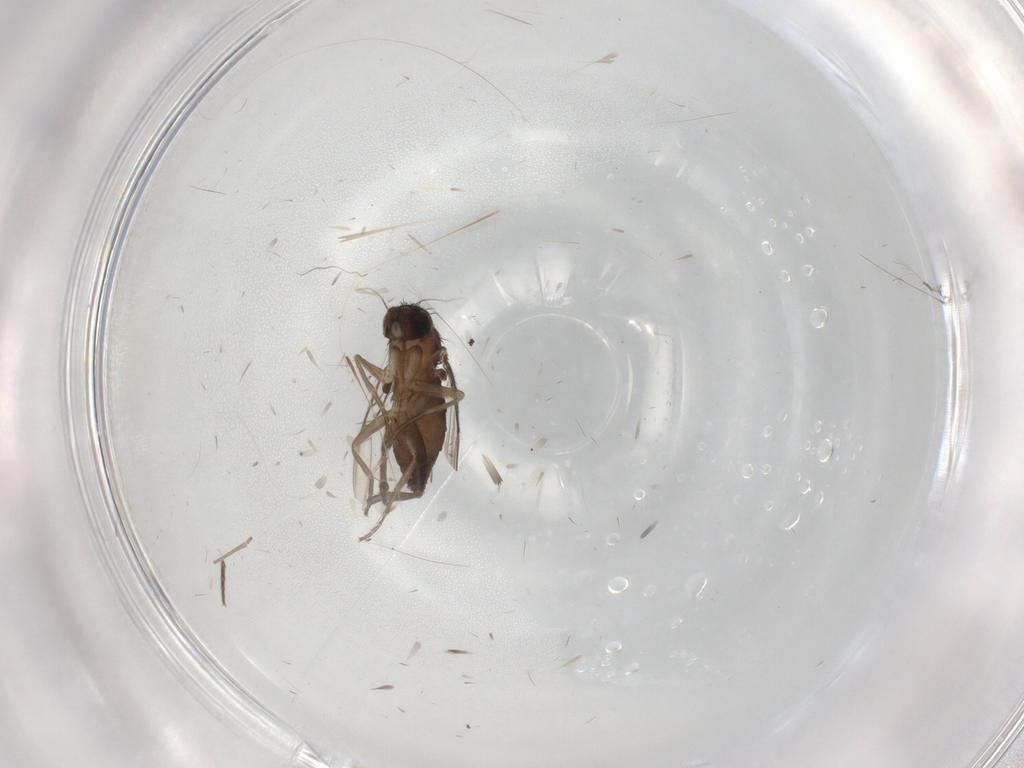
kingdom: Animalia
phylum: Arthropoda
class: Insecta
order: Diptera
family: Phoridae
